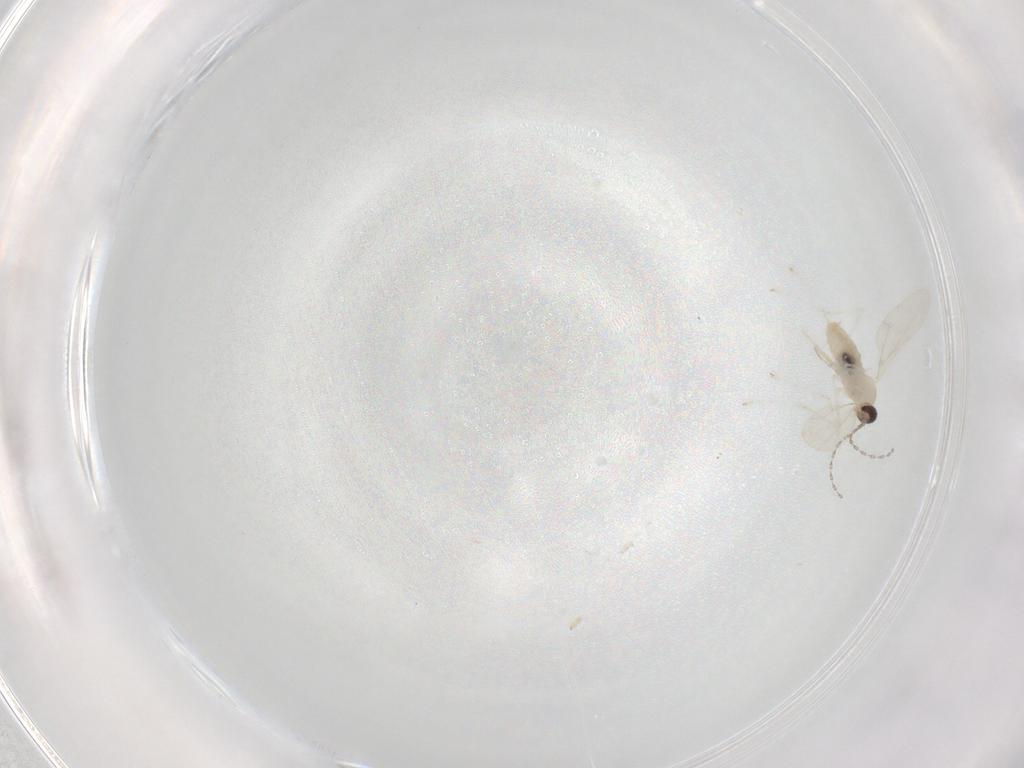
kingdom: Animalia
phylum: Arthropoda
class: Insecta
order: Diptera
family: Cecidomyiidae
